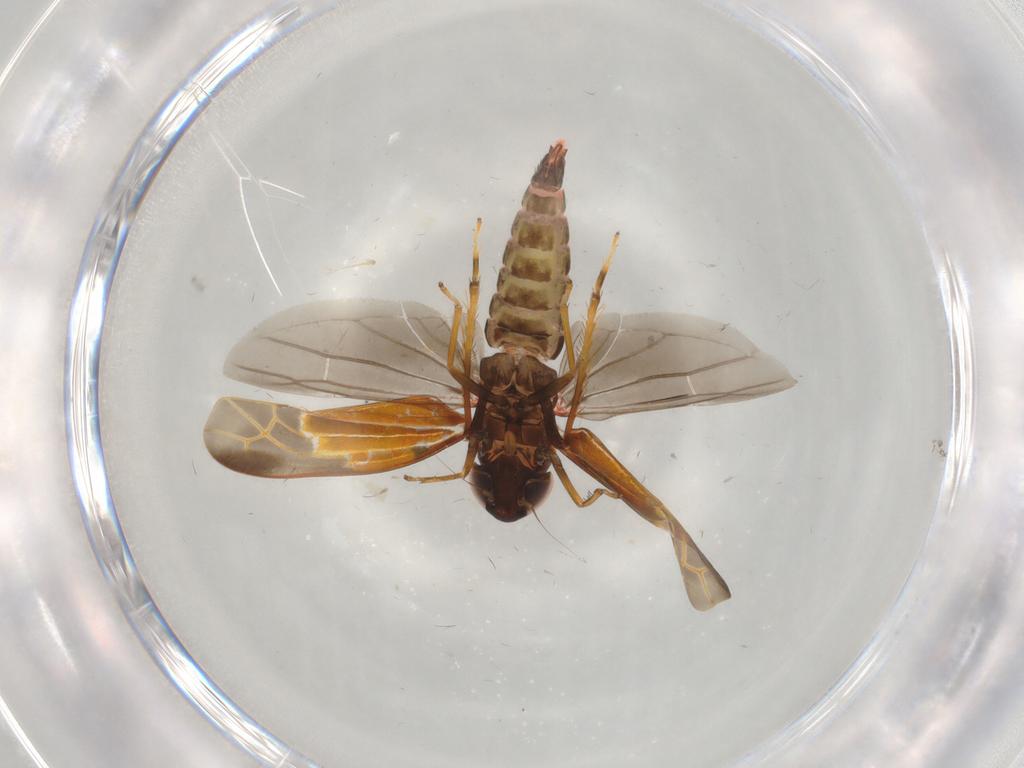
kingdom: Animalia
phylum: Arthropoda
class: Insecta
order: Hemiptera
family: Cicadellidae
